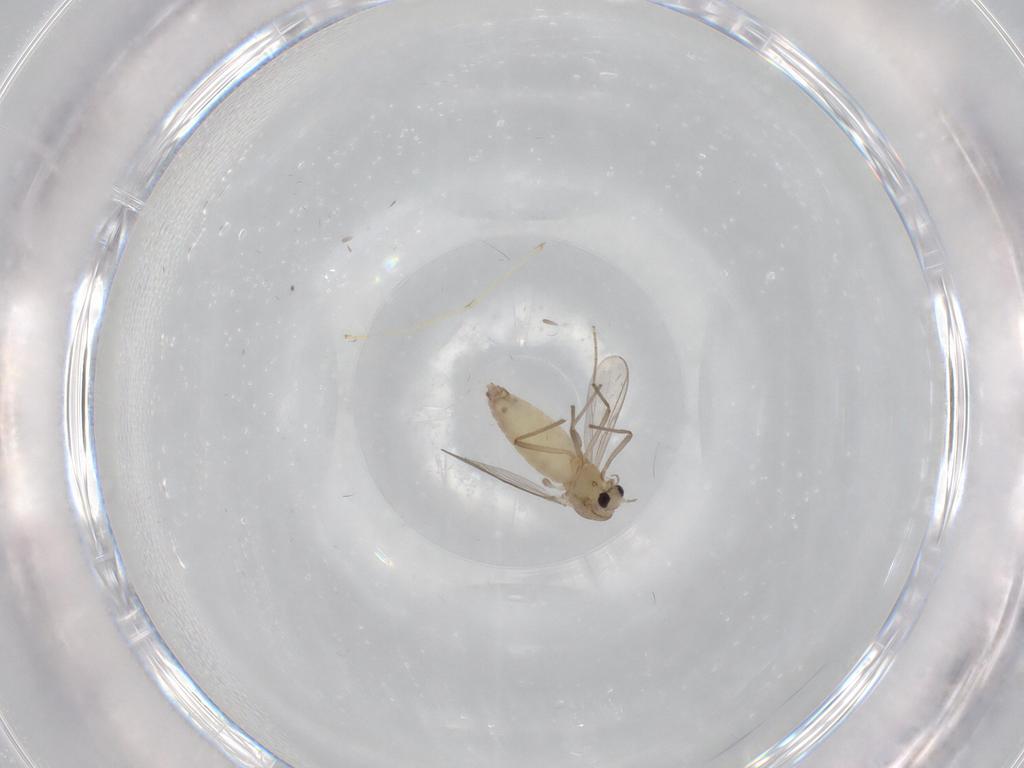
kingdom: Animalia
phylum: Arthropoda
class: Insecta
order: Diptera
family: Chironomidae
